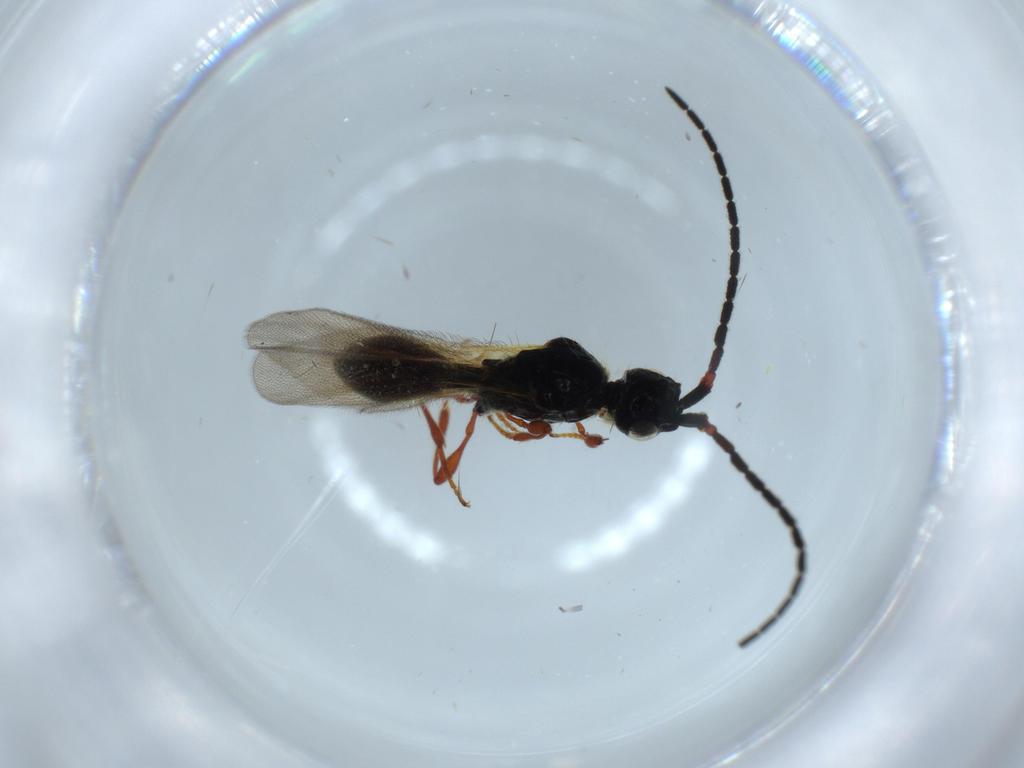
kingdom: Animalia
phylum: Arthropoda
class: Insecta
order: Hymenoptera
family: Diapriidae
